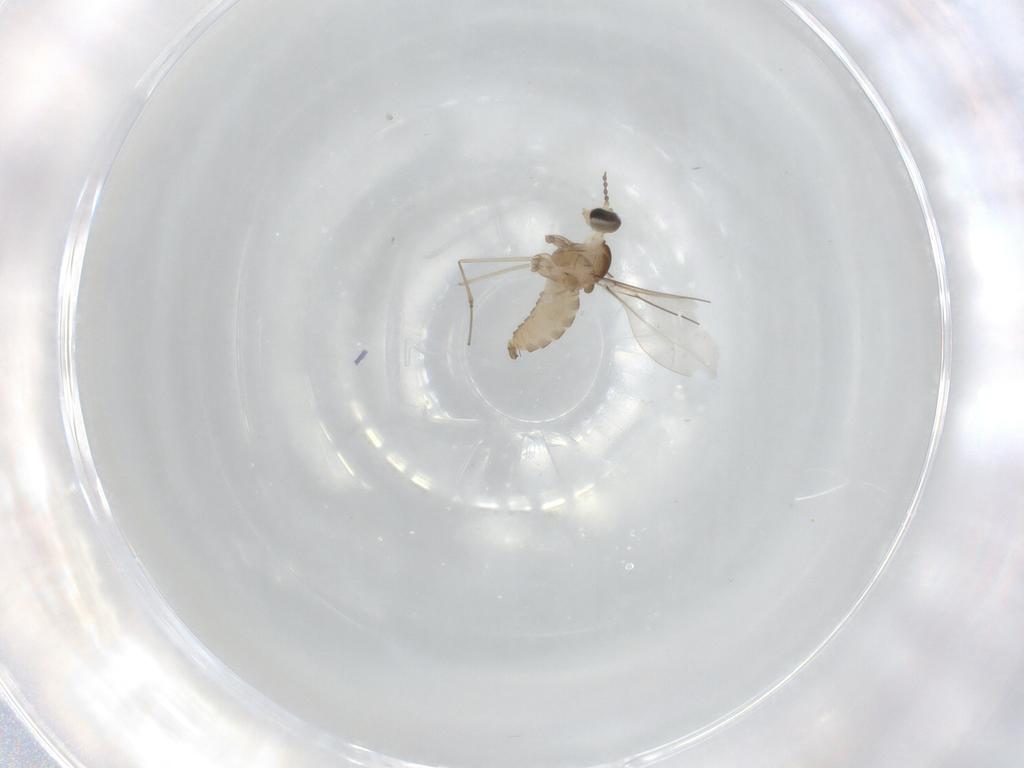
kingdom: Animalia
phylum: Arthropoda
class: Insecta
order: Diptera
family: Cecidomyiidae
